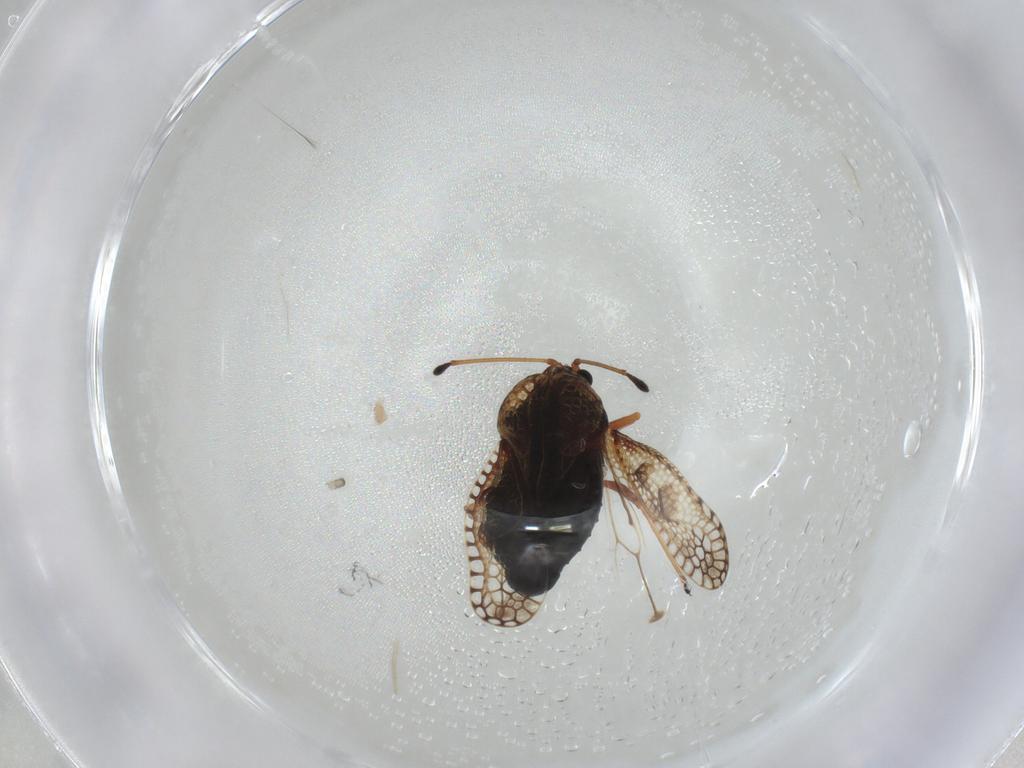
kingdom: Animalia
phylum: Arthropoda
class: Insecta
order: Hemiptera
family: Tingidae
